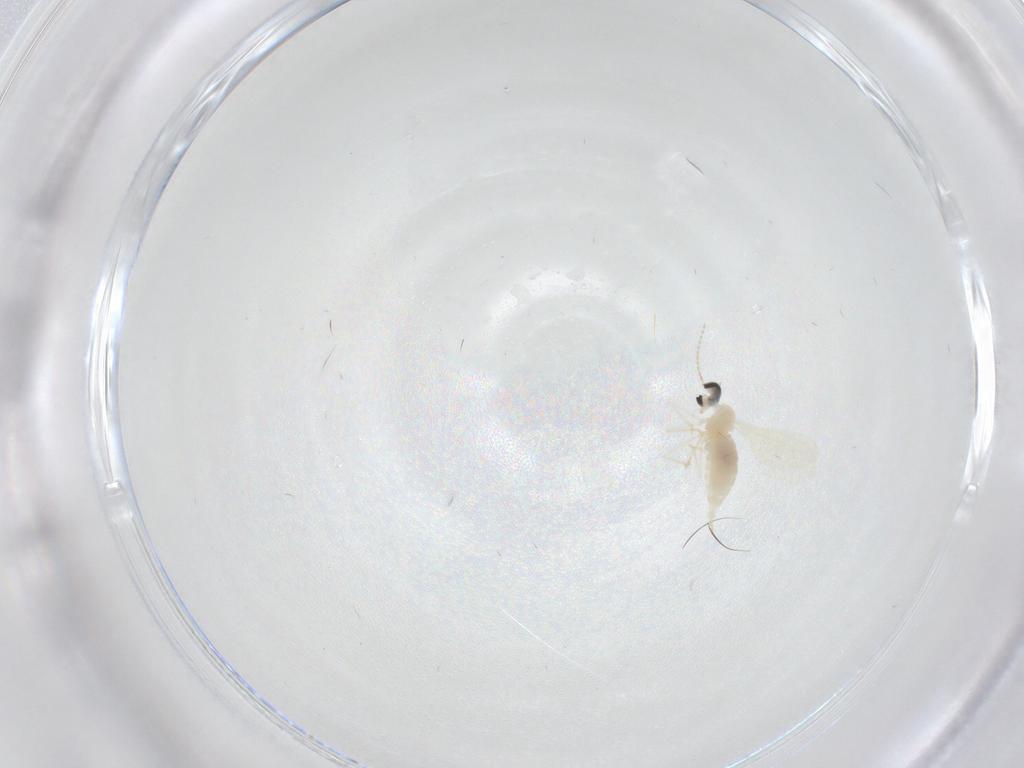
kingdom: Animalia
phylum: Arthropoda
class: Insecta
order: Diptera
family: Cecidomyiidae
